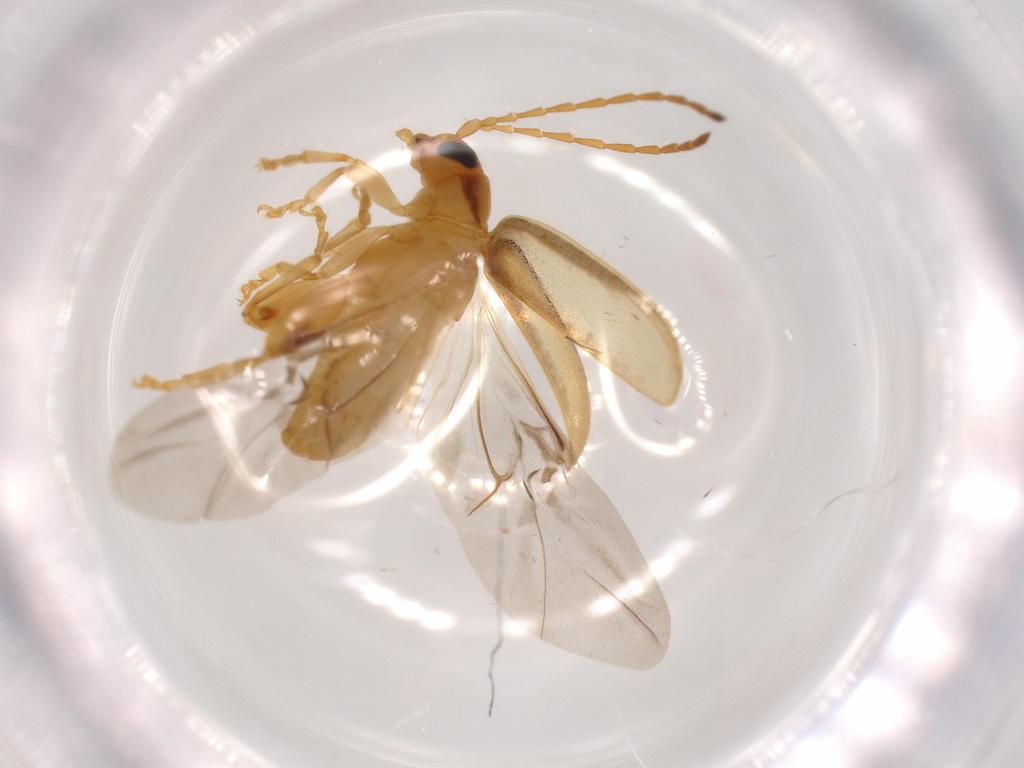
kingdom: Animalia
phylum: Arthropoda
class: Insecta
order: Coleoptera
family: Chrysomelidae
